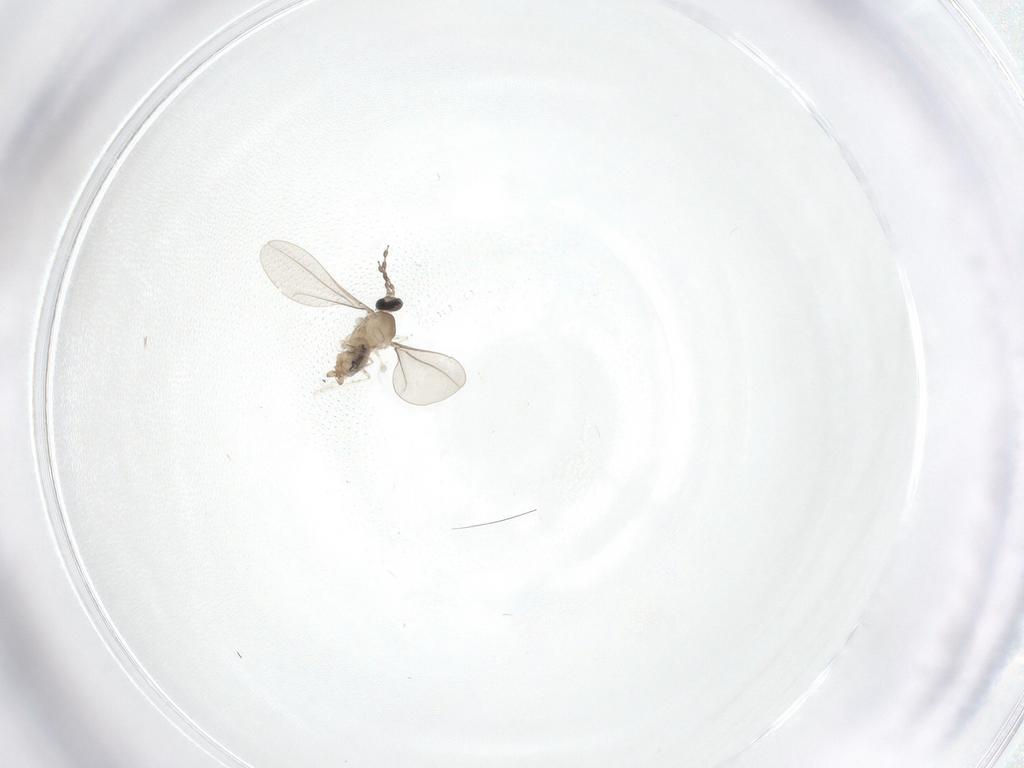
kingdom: Animalia
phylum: Arthropoda
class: Insecta
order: Diptera
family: Cecidomyiidae
